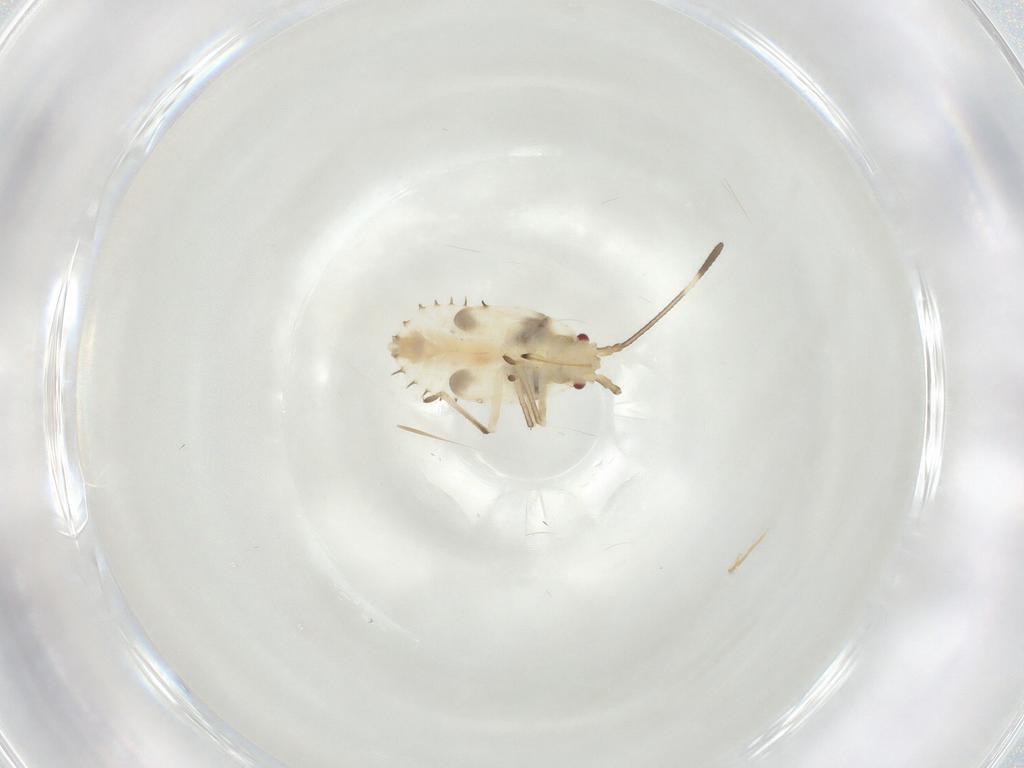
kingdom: Animalia
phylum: Arthropoda
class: Insecta
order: Hemiptera
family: Tingidae
